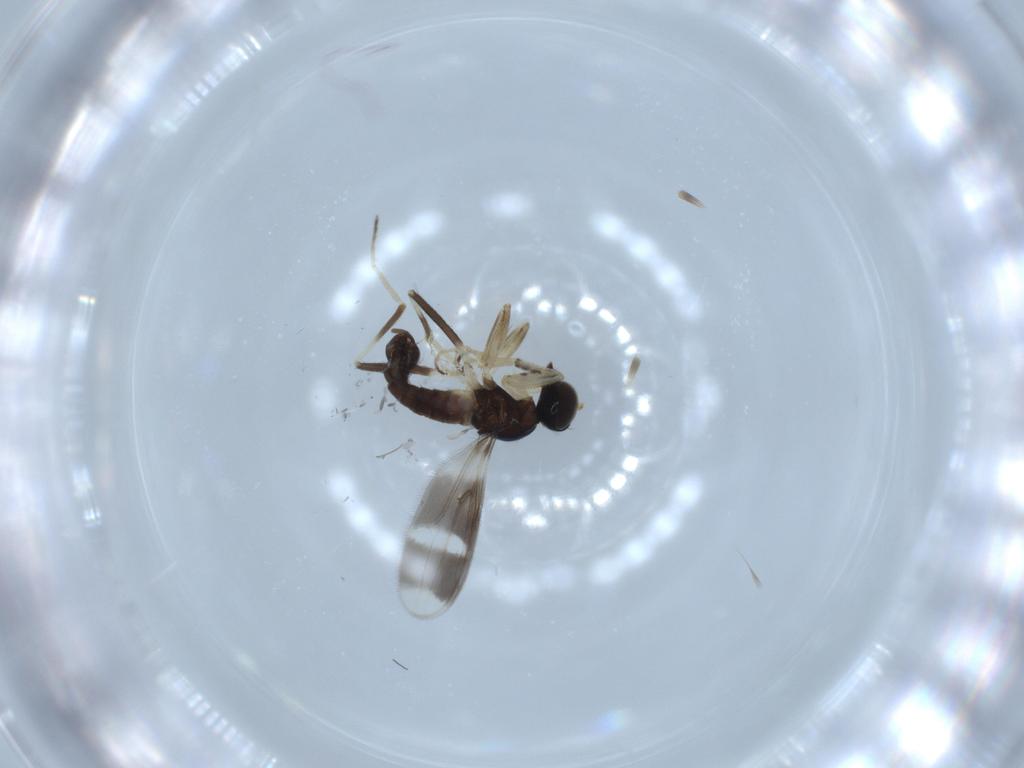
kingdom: Animalia
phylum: Arthropoda
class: Insecta
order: Diptera
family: Hybotidae
